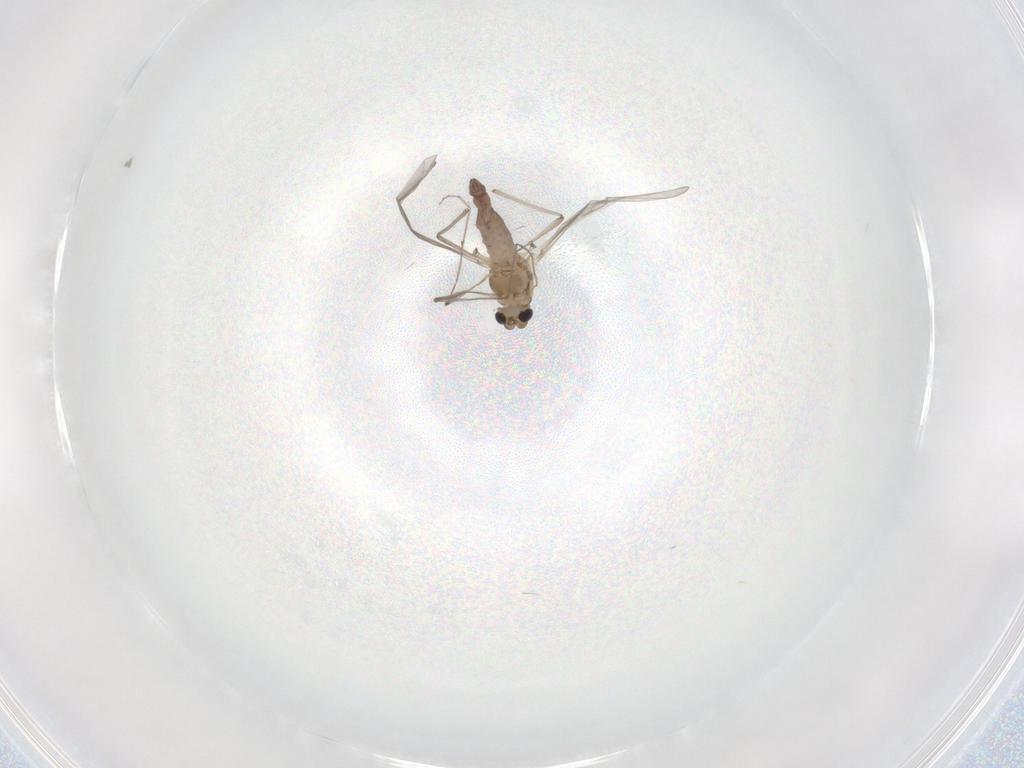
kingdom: Animalia
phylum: Arthropoda
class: Insecta
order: Diptera
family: Chironomidae
